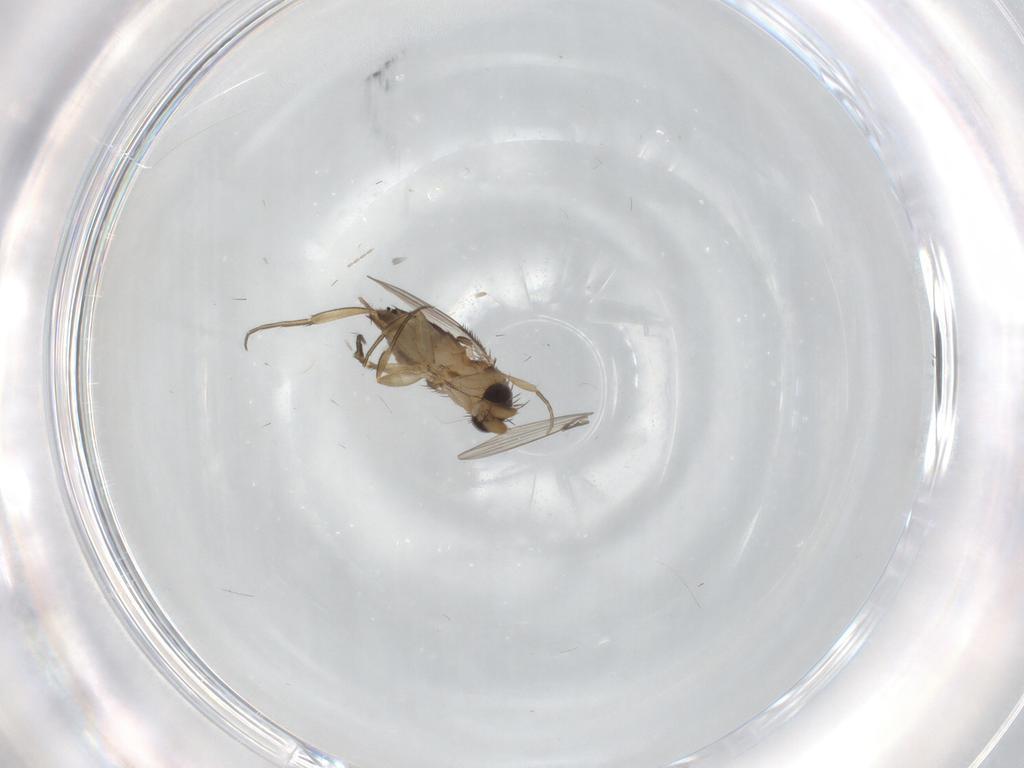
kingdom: Animalia
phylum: Arthropoda
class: Insecta
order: Diptera
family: Phoridae
